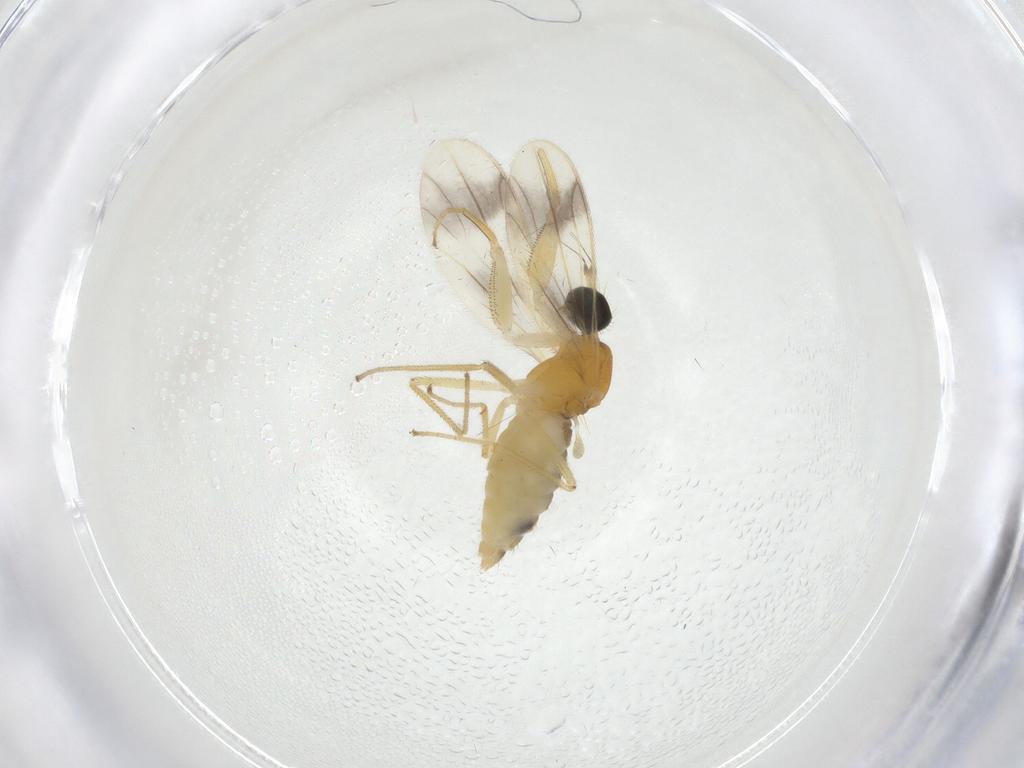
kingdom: Animalia
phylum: Arthropoda
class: Insecta
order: Diptera
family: Empididae
